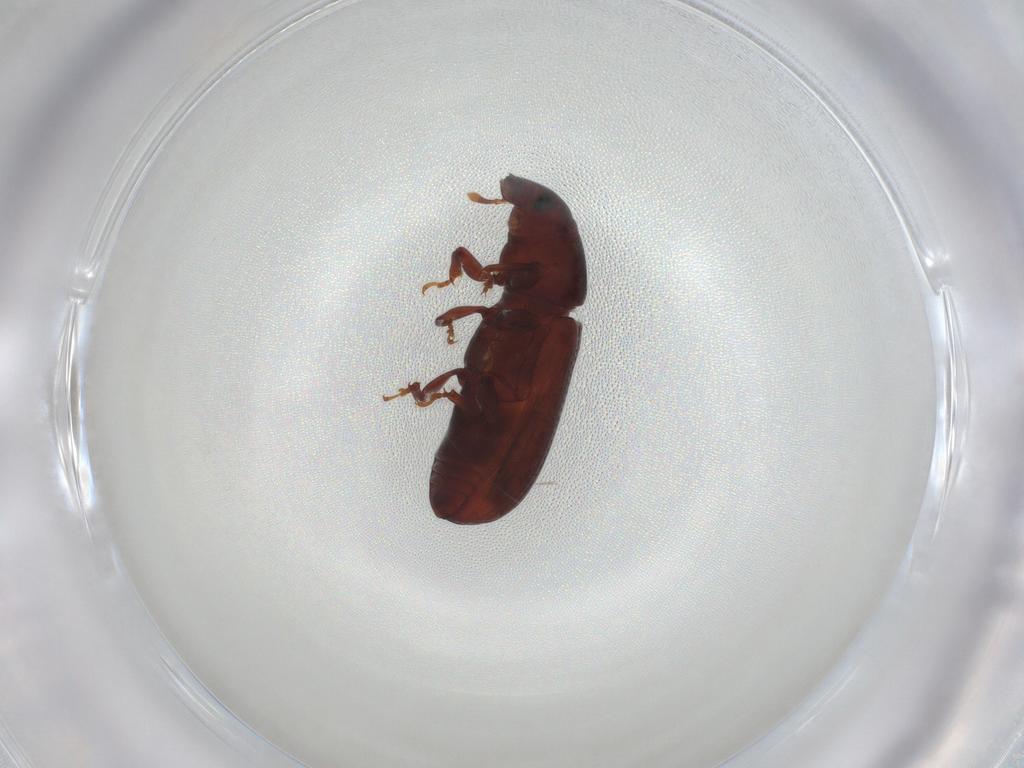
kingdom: Animalia
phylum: Arthropoda
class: Insecta
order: Coleoptera
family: Curculionidae
